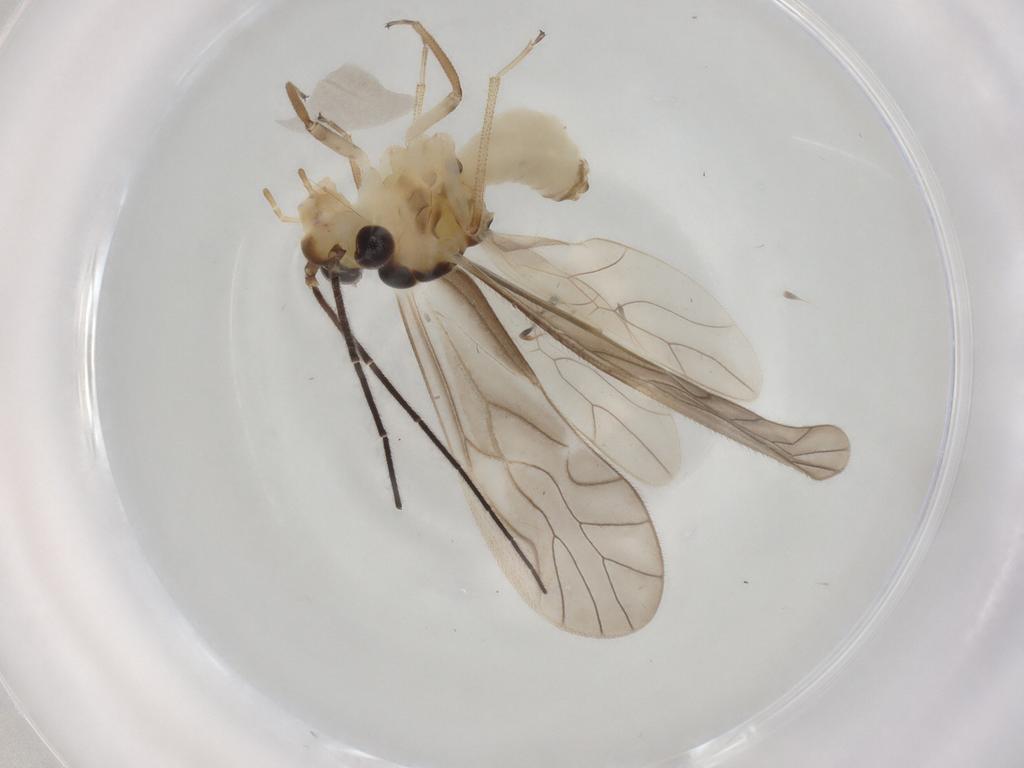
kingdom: Animalia
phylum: Arthropoda
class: Insecta
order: Psocodea
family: Caeciliusidae
